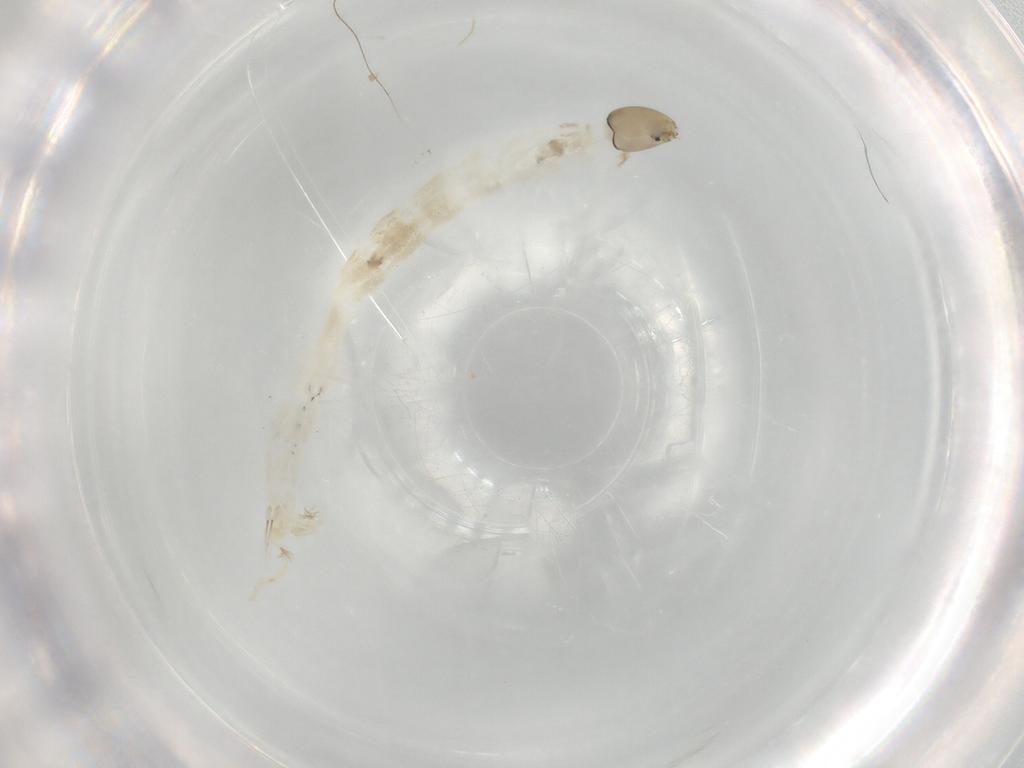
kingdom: Animalia
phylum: Arthropoda
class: Insecta
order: Diptera
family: Chironomidae
